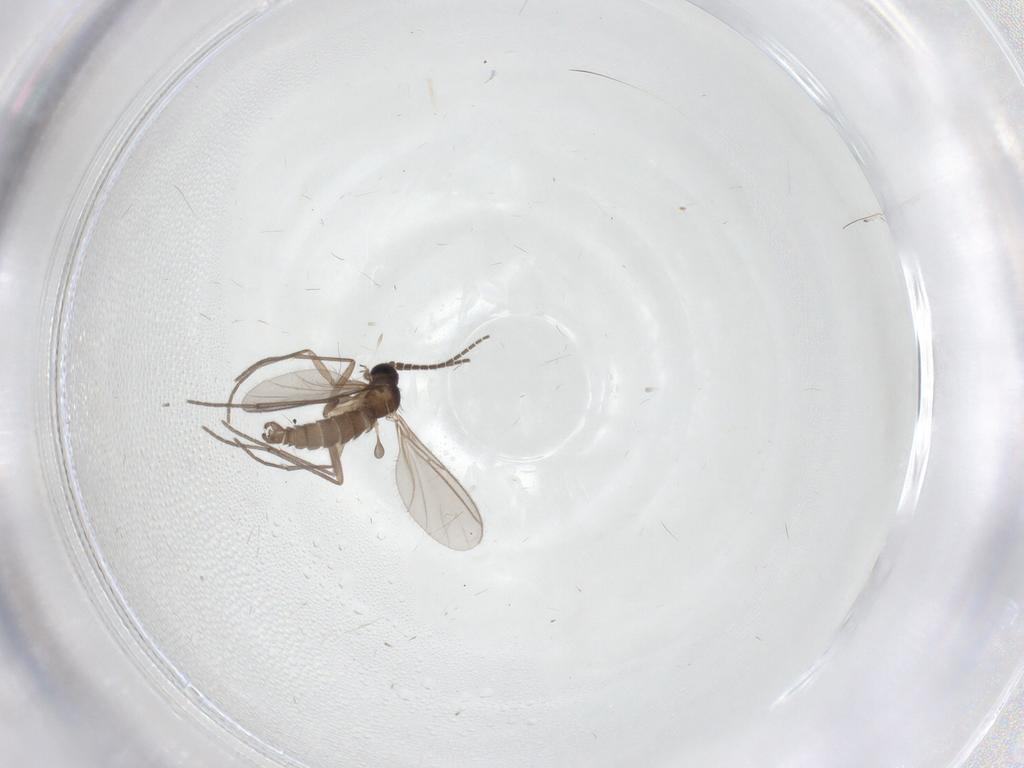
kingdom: Animalia
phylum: Arthropoda
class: Insecta
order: Diptera
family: Sciaridae
